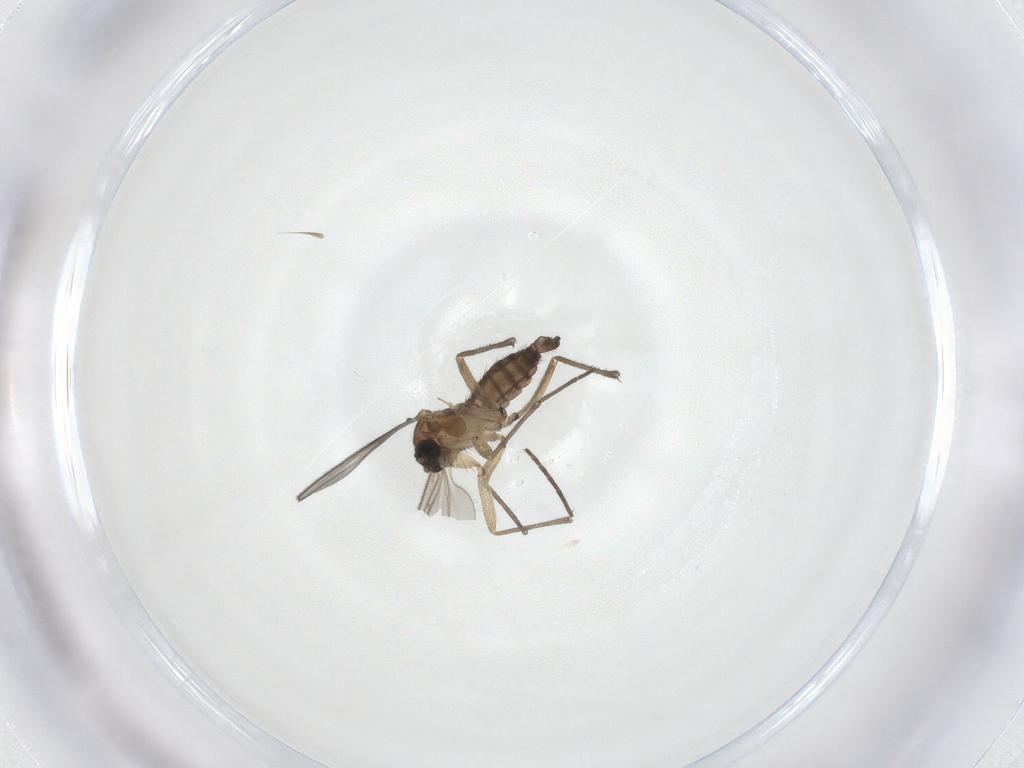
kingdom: Animalia
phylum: Arthropoda
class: Insecta
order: Diptera
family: Sciaridae
